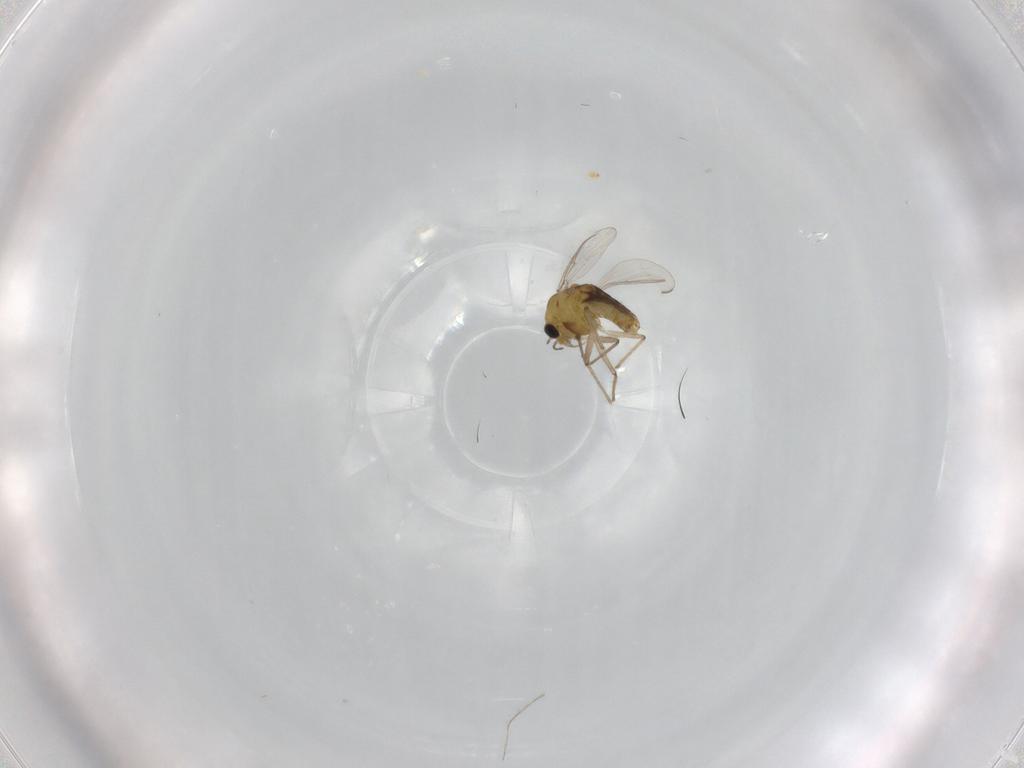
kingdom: Animalia
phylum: Arthropoda
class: Insecta
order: Diptera
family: Chironomidae
